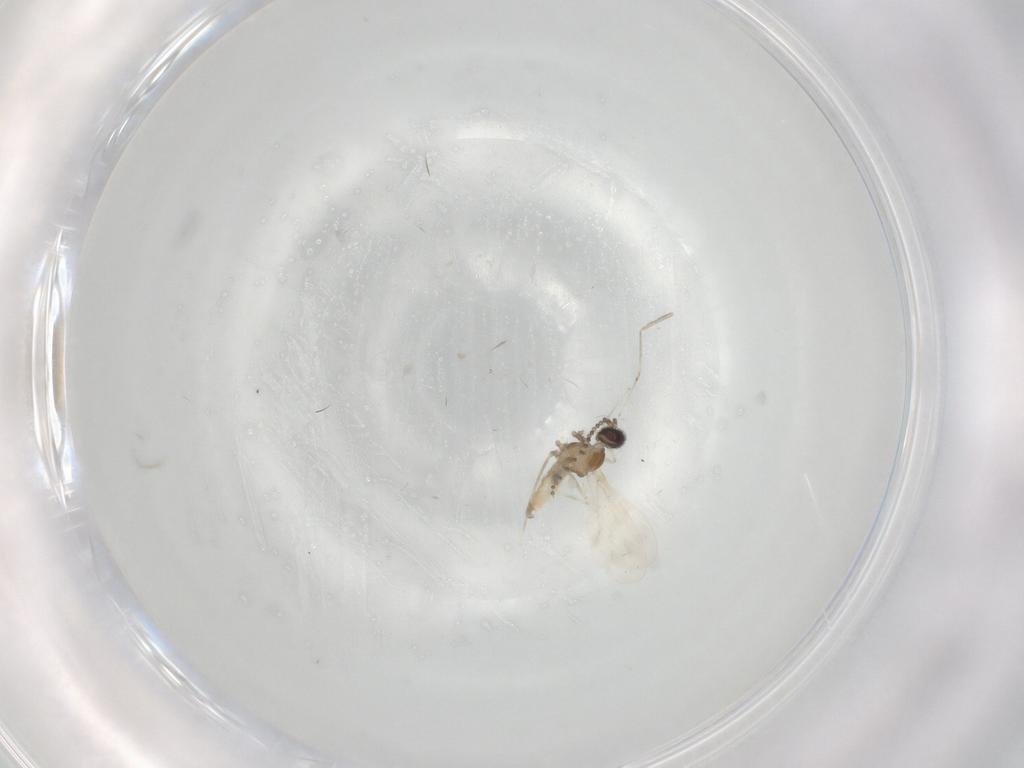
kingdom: Animalia
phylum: Arthropoda
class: Insecta
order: Diptera
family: Cecidomyiidae
